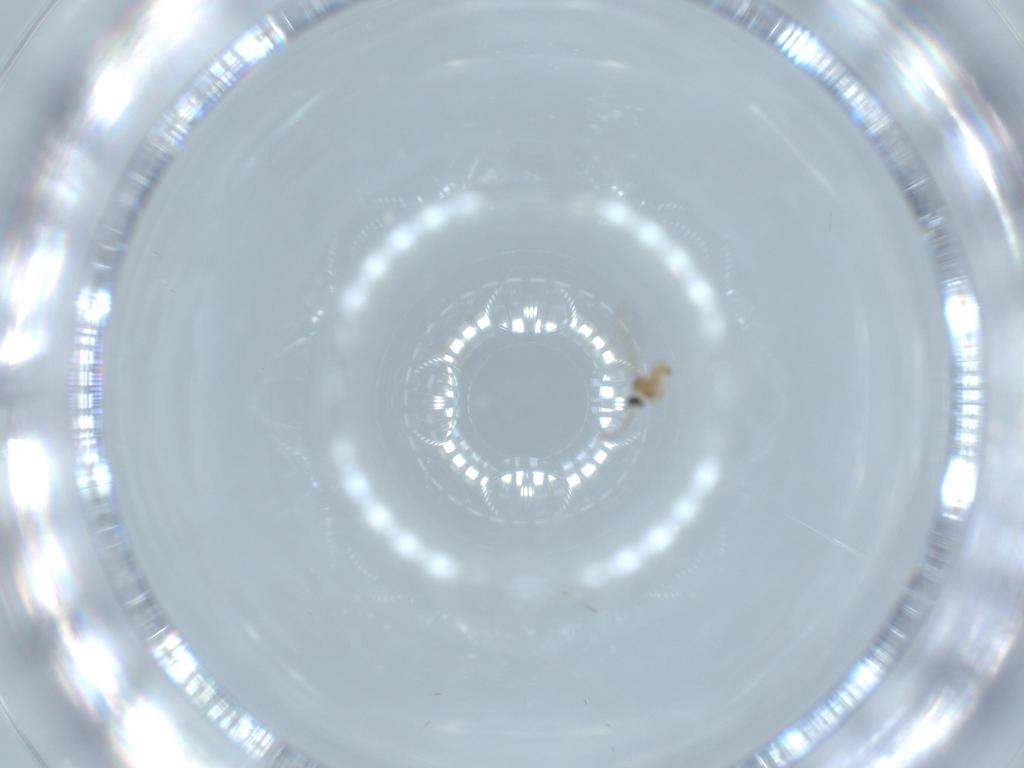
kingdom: Animalia
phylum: Arthropoda
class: Insecta
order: Diptera
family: Cecidomyiidae
